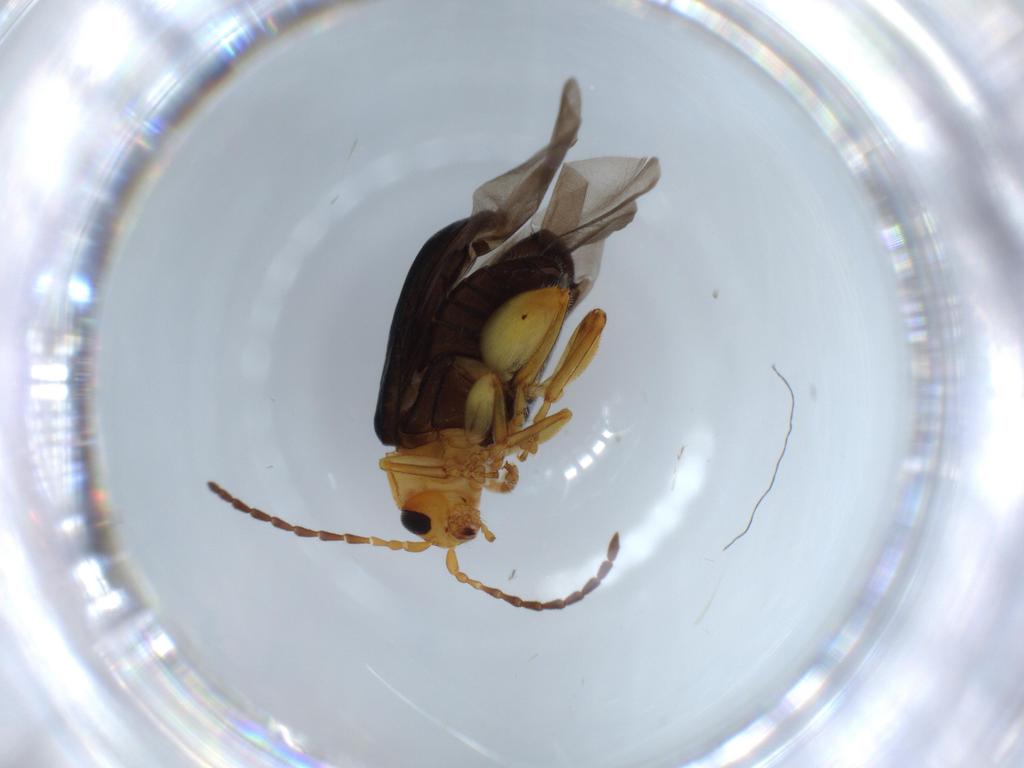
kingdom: Animalia
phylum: Arthropoda
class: Insecta
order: Coleoptera
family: Chrysomelidae
